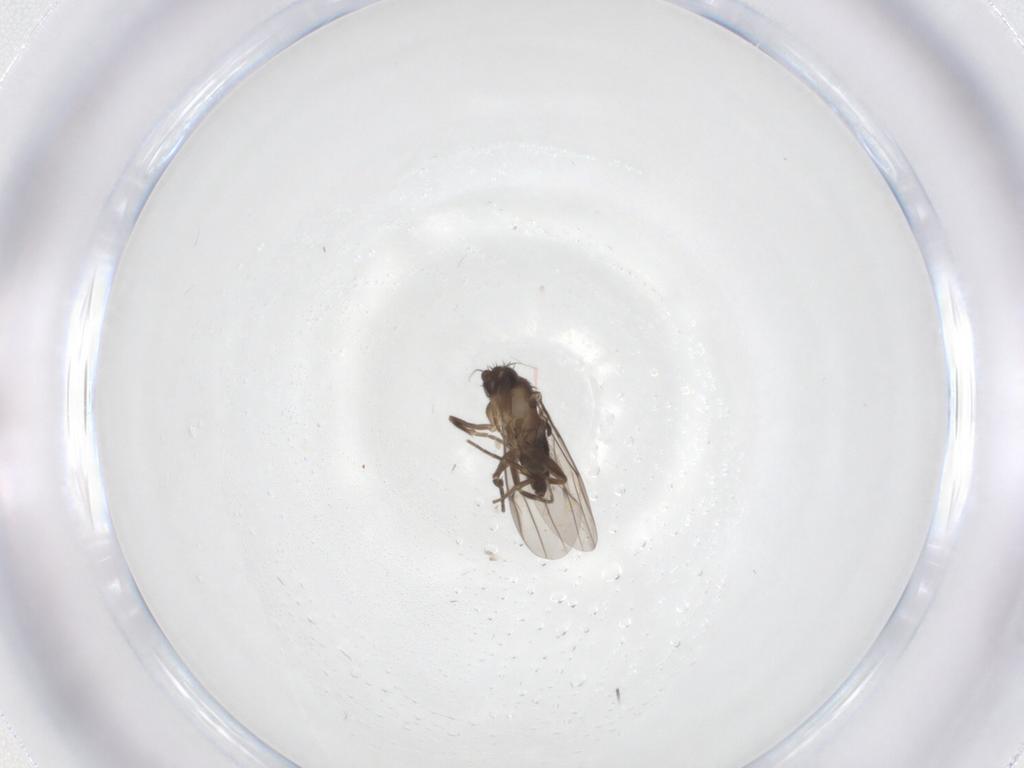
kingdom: Animalia
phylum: Arthropoda
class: Insecta
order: Diptera
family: Chironomidae
